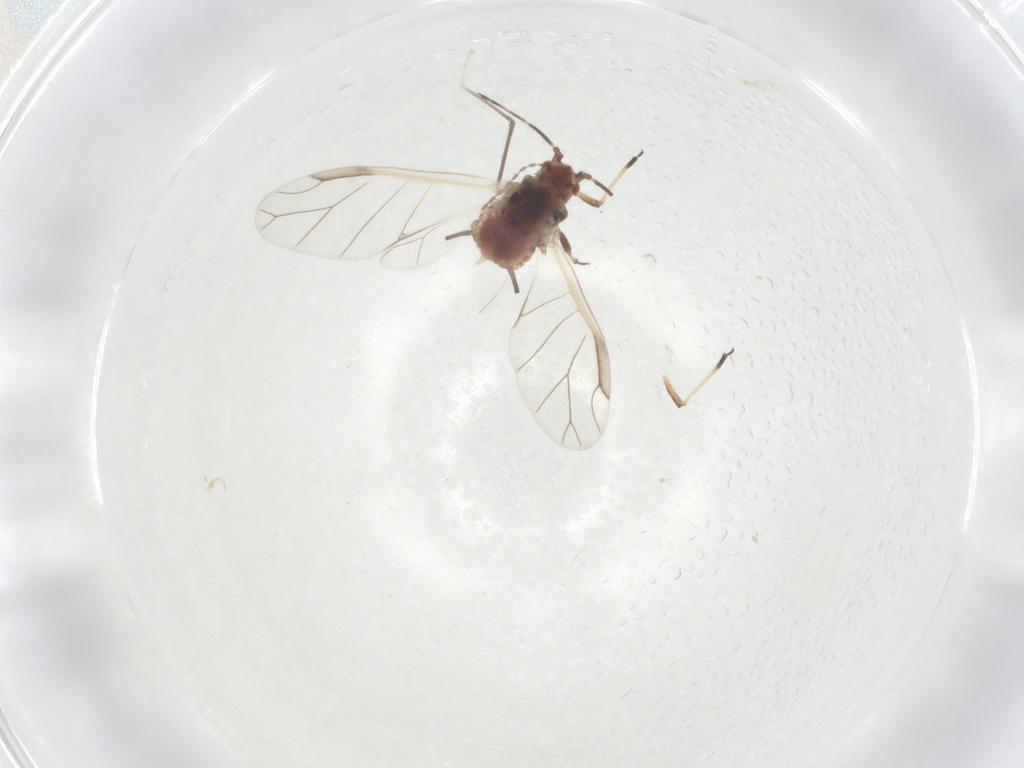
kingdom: Animalia
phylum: Arthropoda
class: Insecta
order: Hemiptera
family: Aphididae
